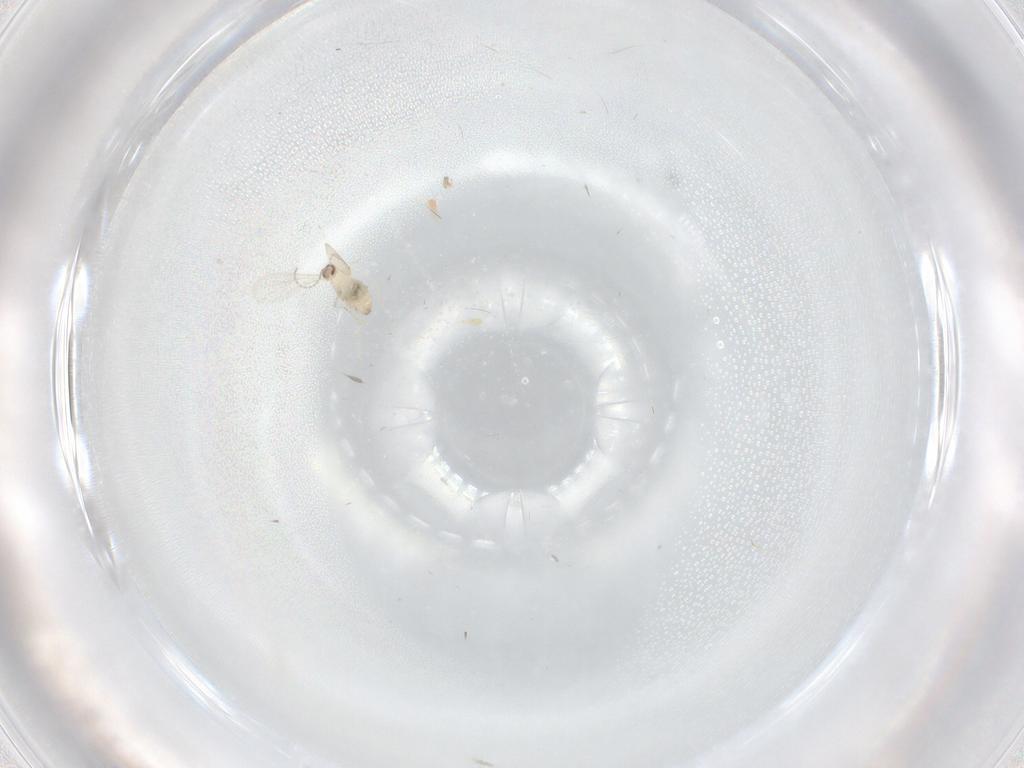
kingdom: Animalia
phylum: Arthropoda
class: Insecta
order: Diptera
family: Cecidomyiidae
